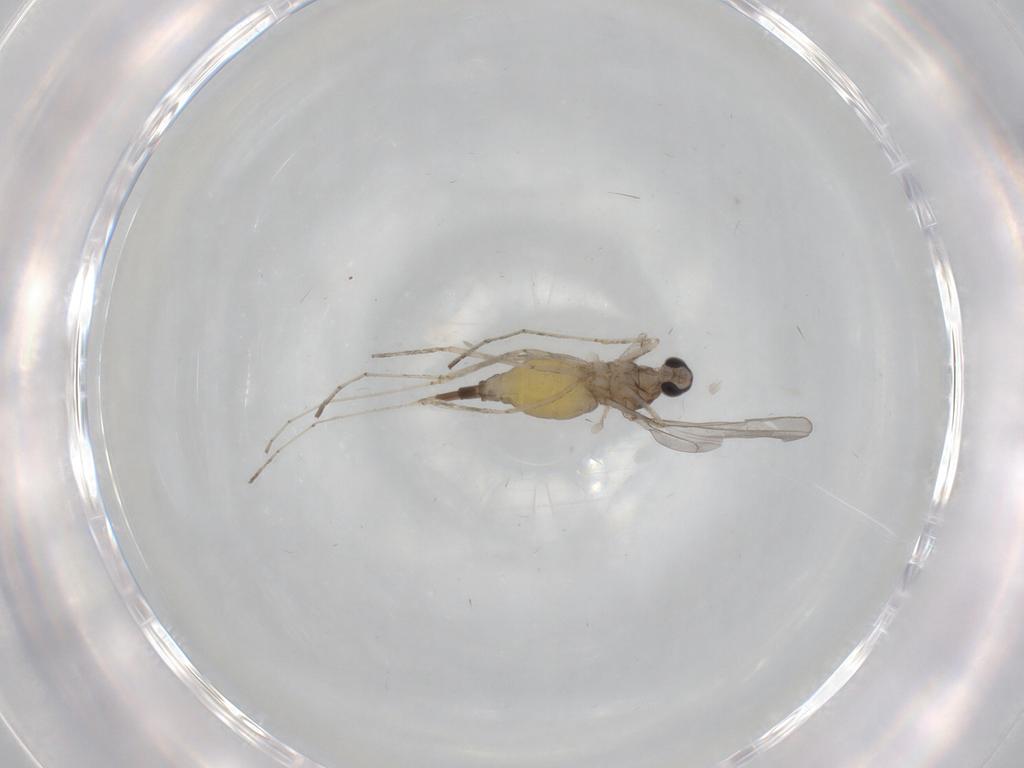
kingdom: Animalia
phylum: Arthropoda
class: Insecta
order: Diptera
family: Cecidomyiidae
